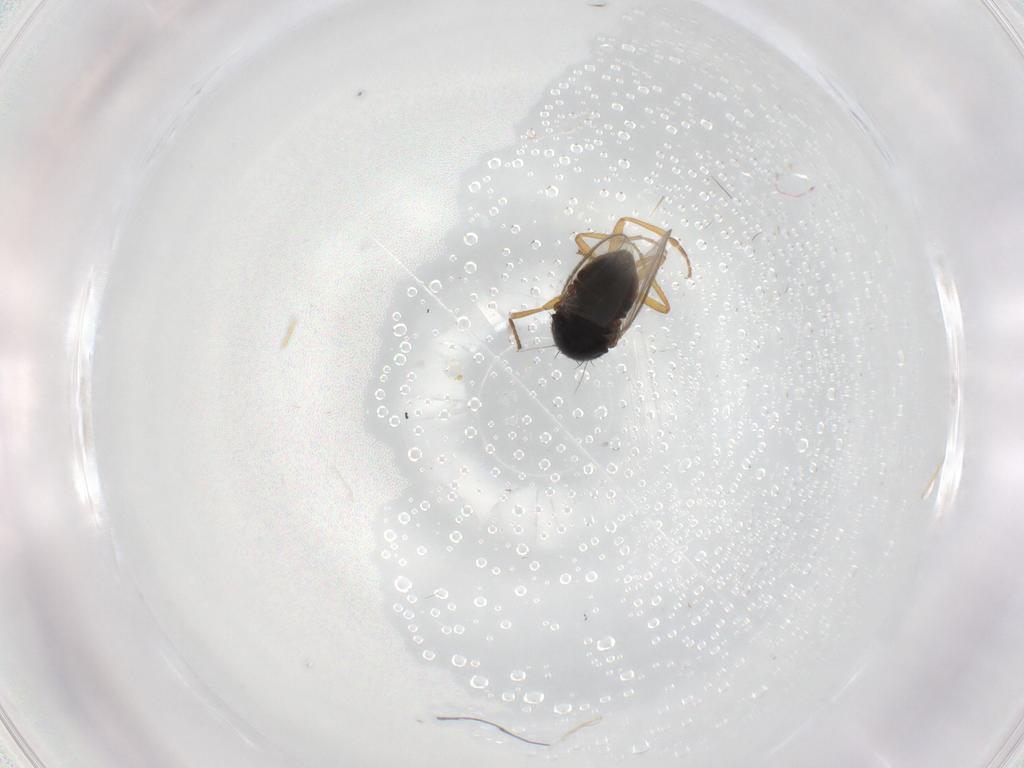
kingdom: Animalia
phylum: Arthropoda
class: Insecta
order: Diptera
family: Sphaeroceridae
